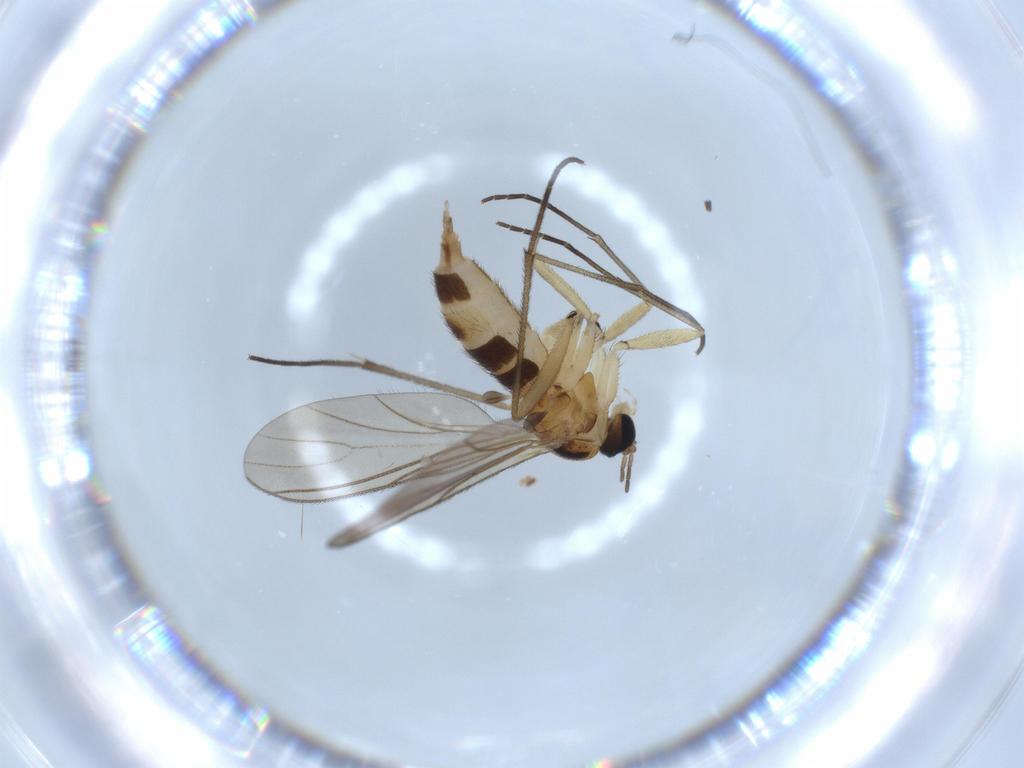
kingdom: Animalia
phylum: Arthropoda
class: Insecta
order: Diptera
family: Sciaridae
